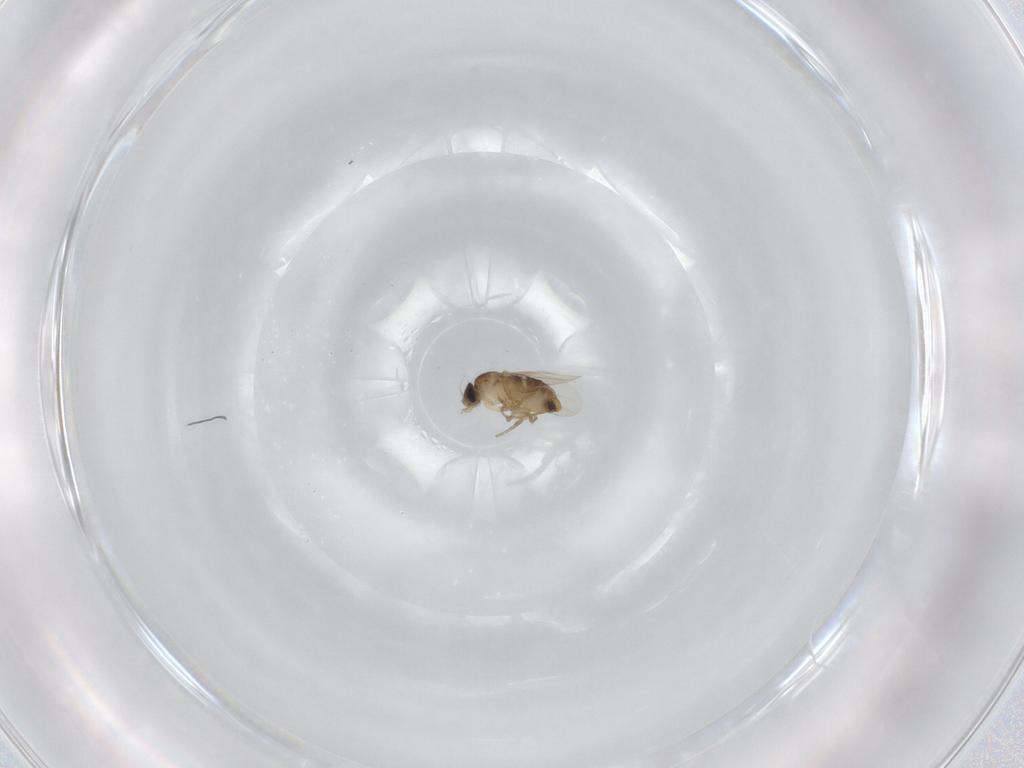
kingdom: Animalia
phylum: Arthropoda
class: Insecta
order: Diptera
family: Phoridae
